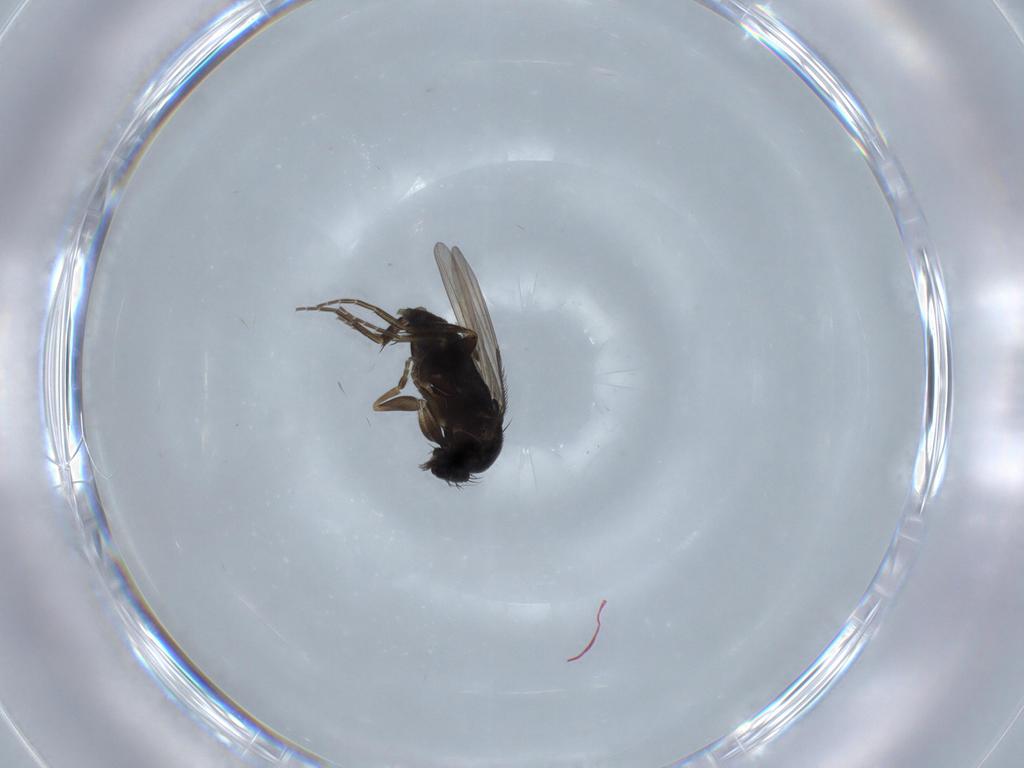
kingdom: Animalia
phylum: Arthropoda
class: Insecta
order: Diptera
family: Phoridae
